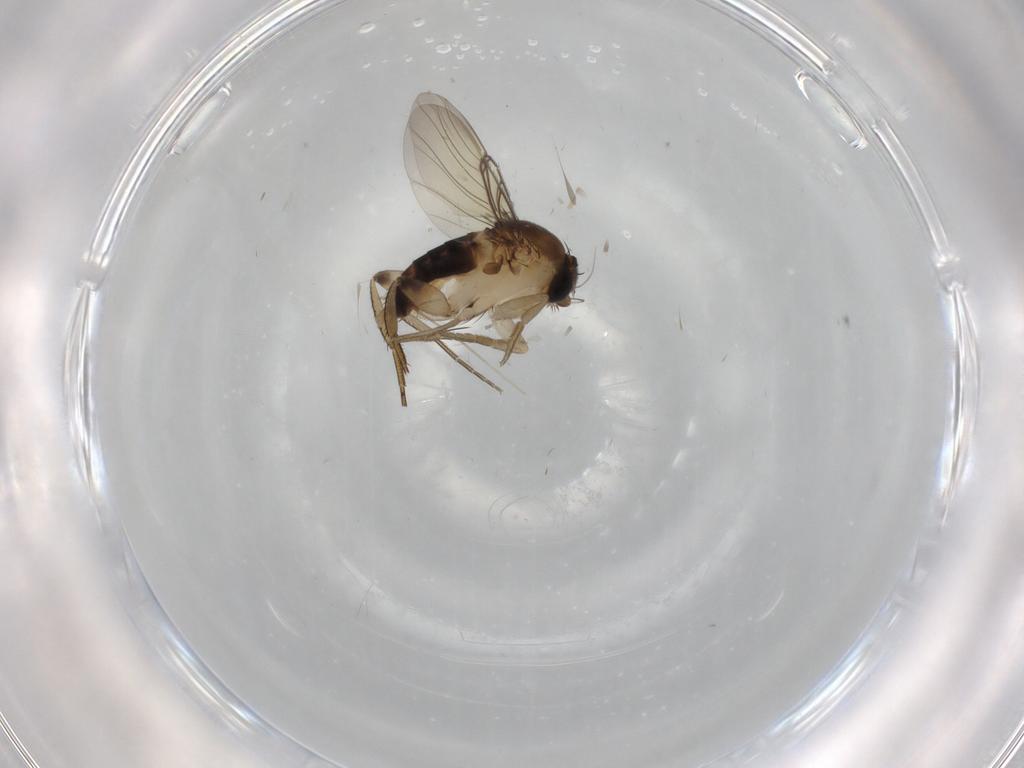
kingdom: Animalia
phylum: Arthropoda
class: Insecta
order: Diptera
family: Phoridae
